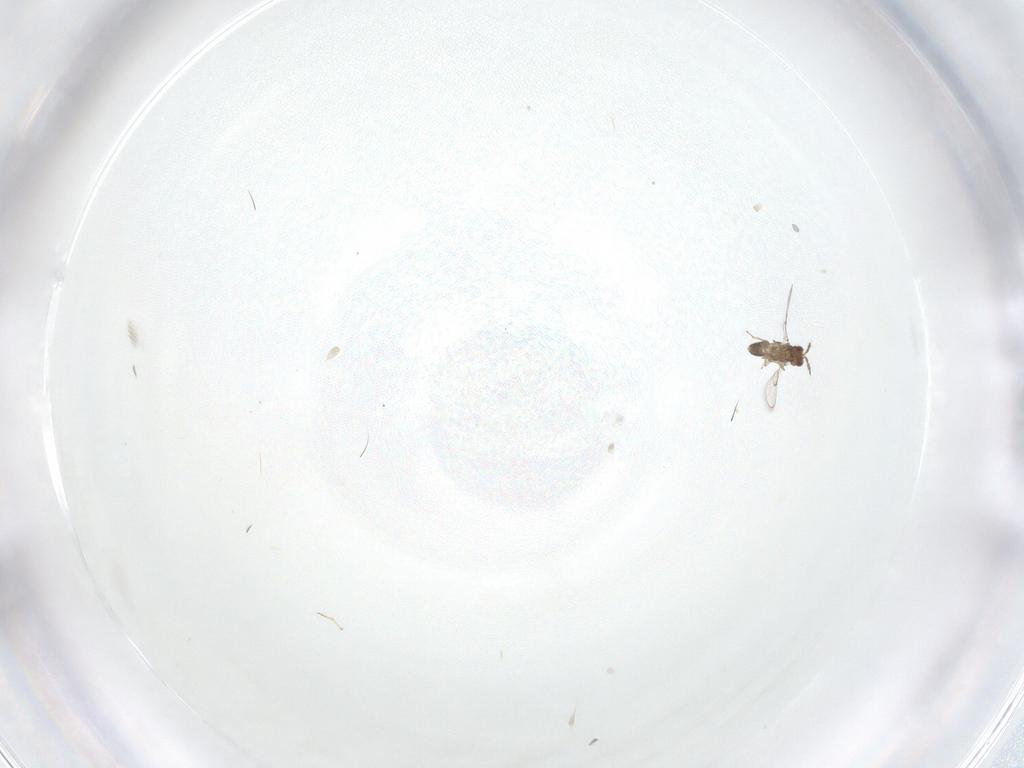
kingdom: Animalia
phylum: Arthropoda
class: Insecta
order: Hymenoptera
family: Trichogrammatidae
